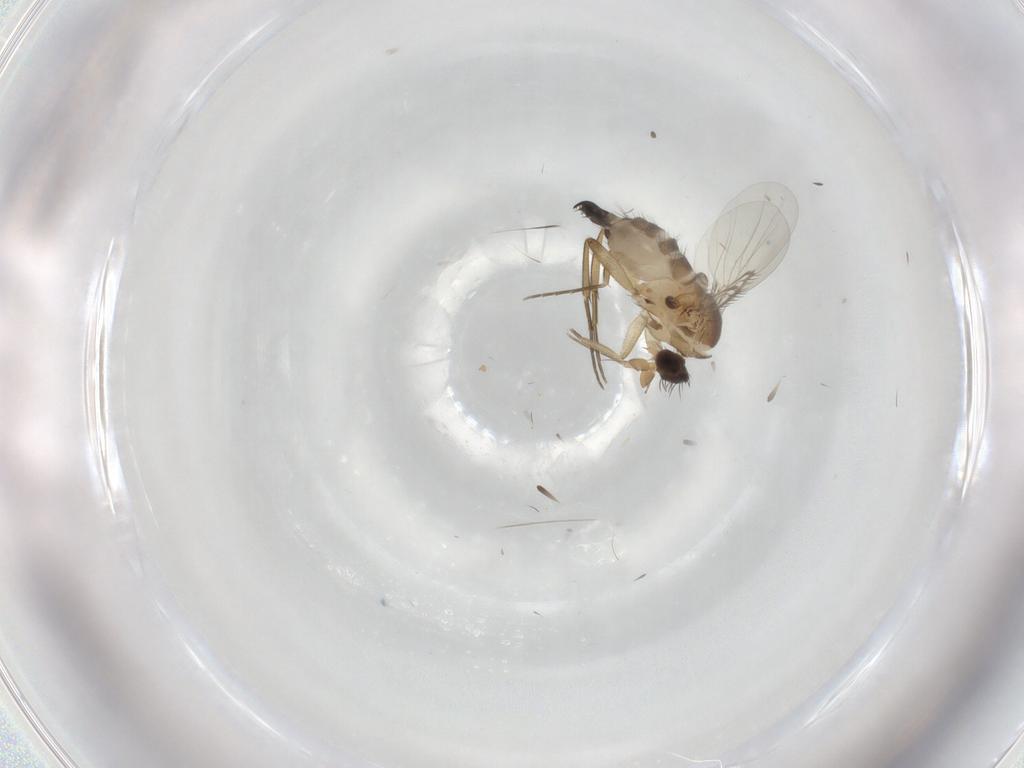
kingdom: Animalia
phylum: Arthropoda
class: Insecta
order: Diptera
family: Phoridae
